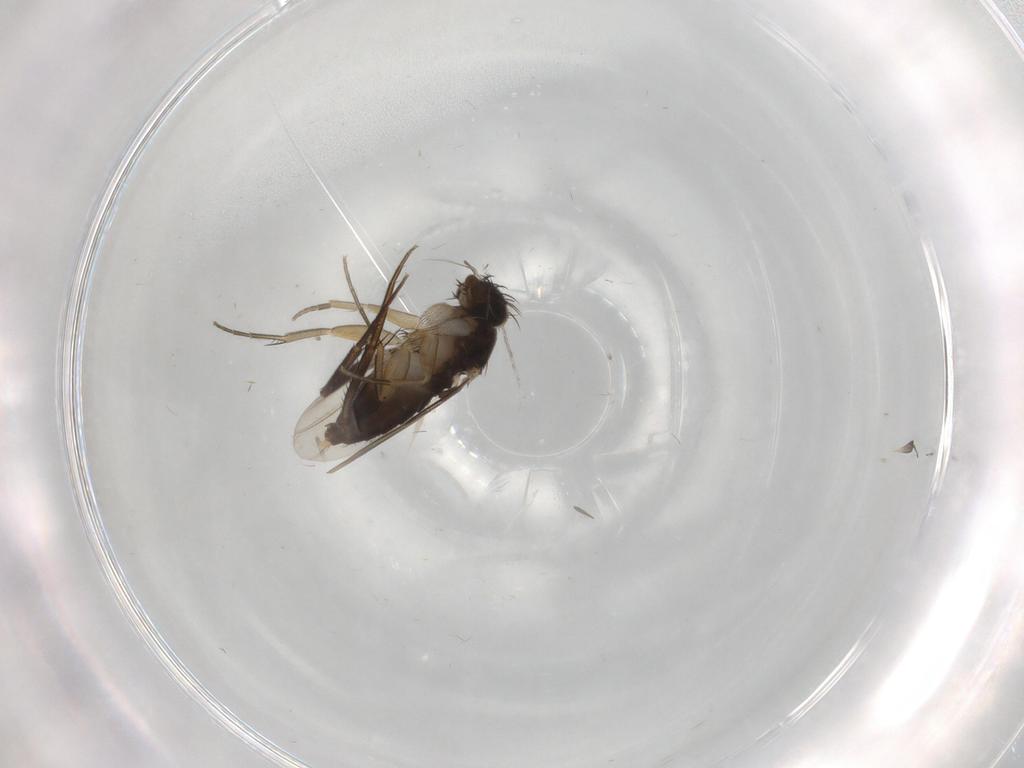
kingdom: Animalia
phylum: Arthropoda
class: Insecta
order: Diptera
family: Phoridae
